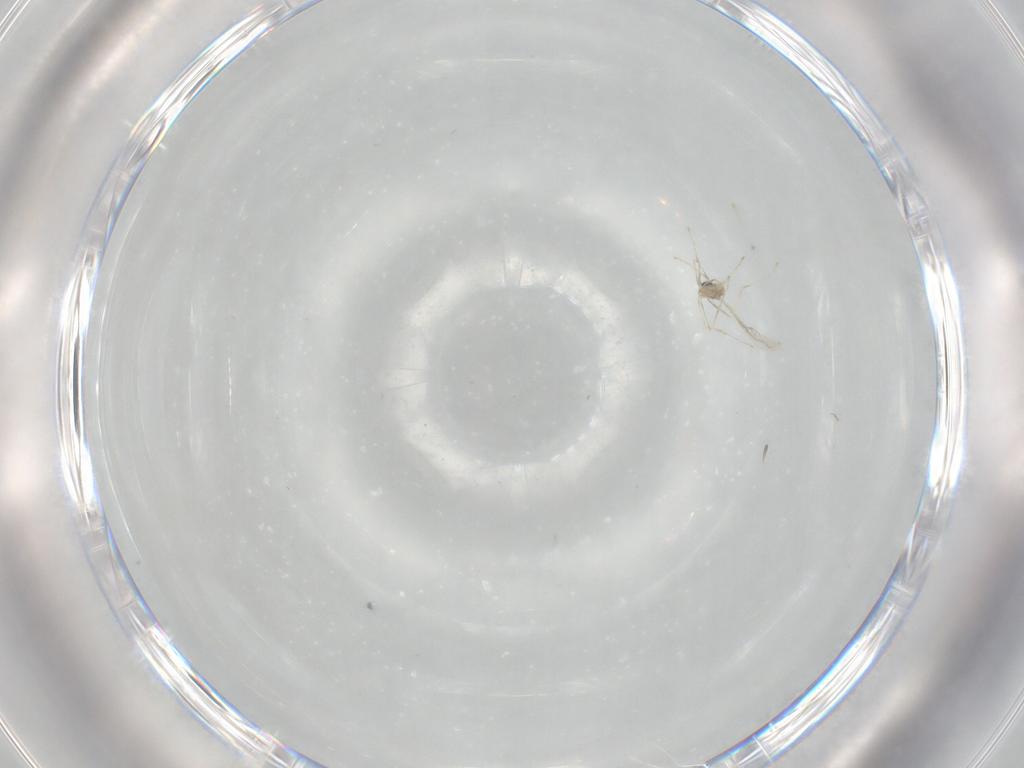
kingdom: Animalia
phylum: Arthropoda
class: Insecta
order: Diptera
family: Cecidomyiidae
